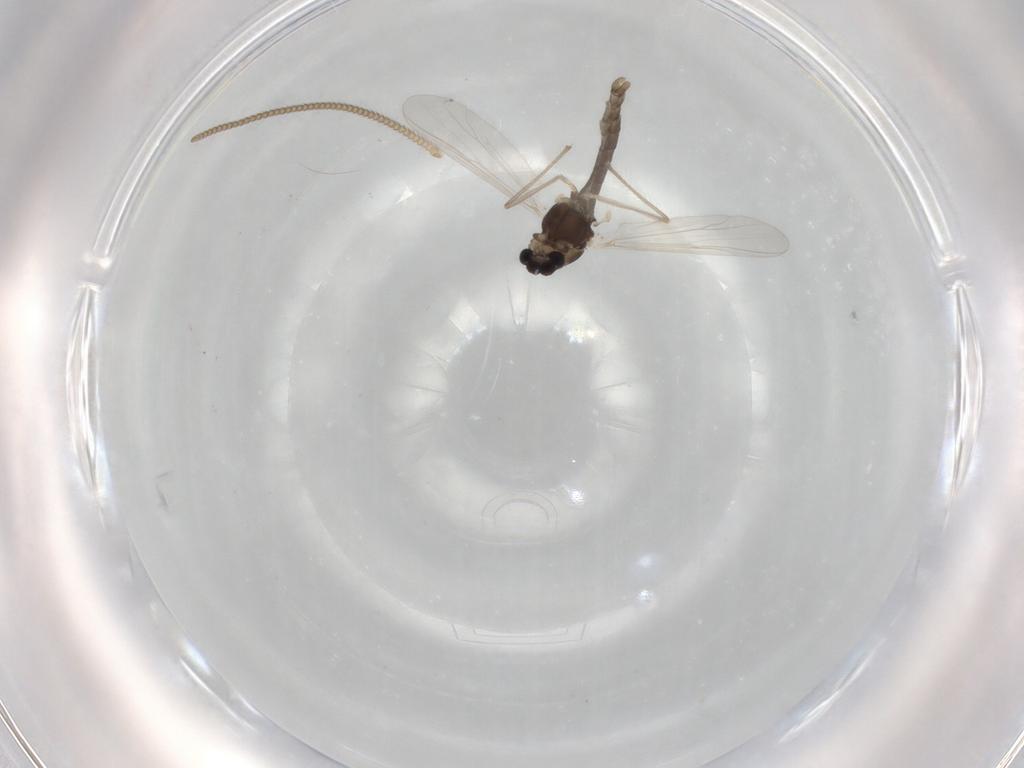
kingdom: Animalia
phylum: Arthropoda
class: Insecta
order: Diptera
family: Chironomidae
